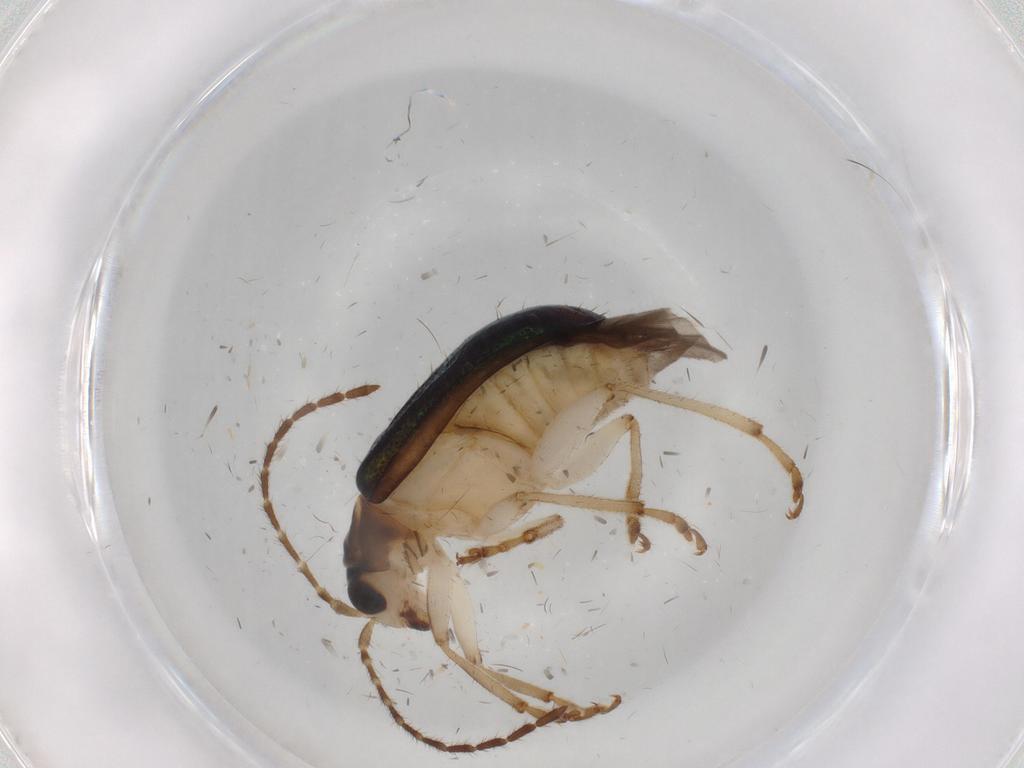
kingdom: Animalia
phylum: Arthropoda
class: Insecta
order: Coleoptera
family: Chrysomelidae
